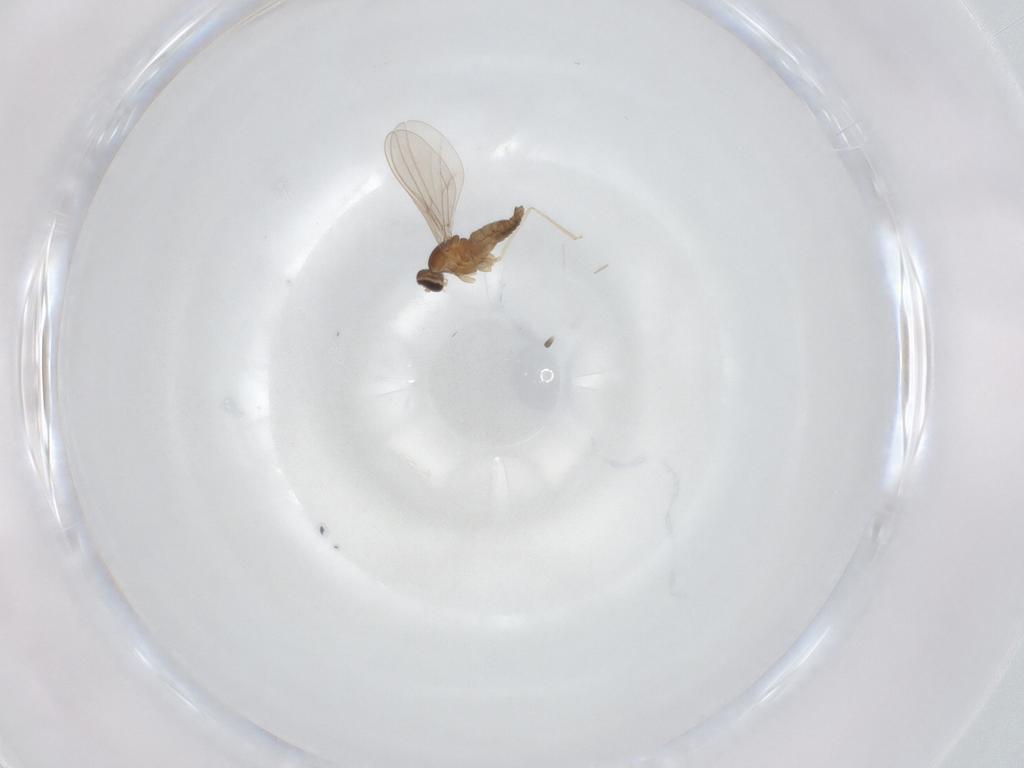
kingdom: Animalia
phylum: Arthropoda
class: Insecta
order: Diptera
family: Cecidomyiidae
